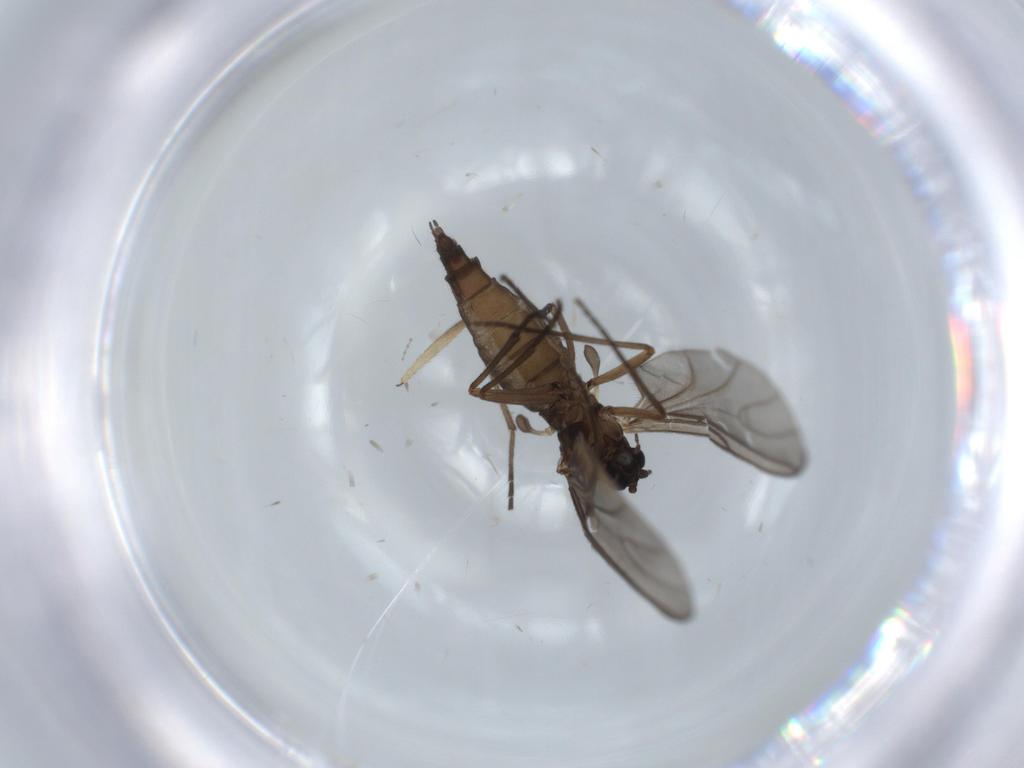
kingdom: Animalia
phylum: Arthropoda
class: Insecta
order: Diptera
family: Sciaridae
